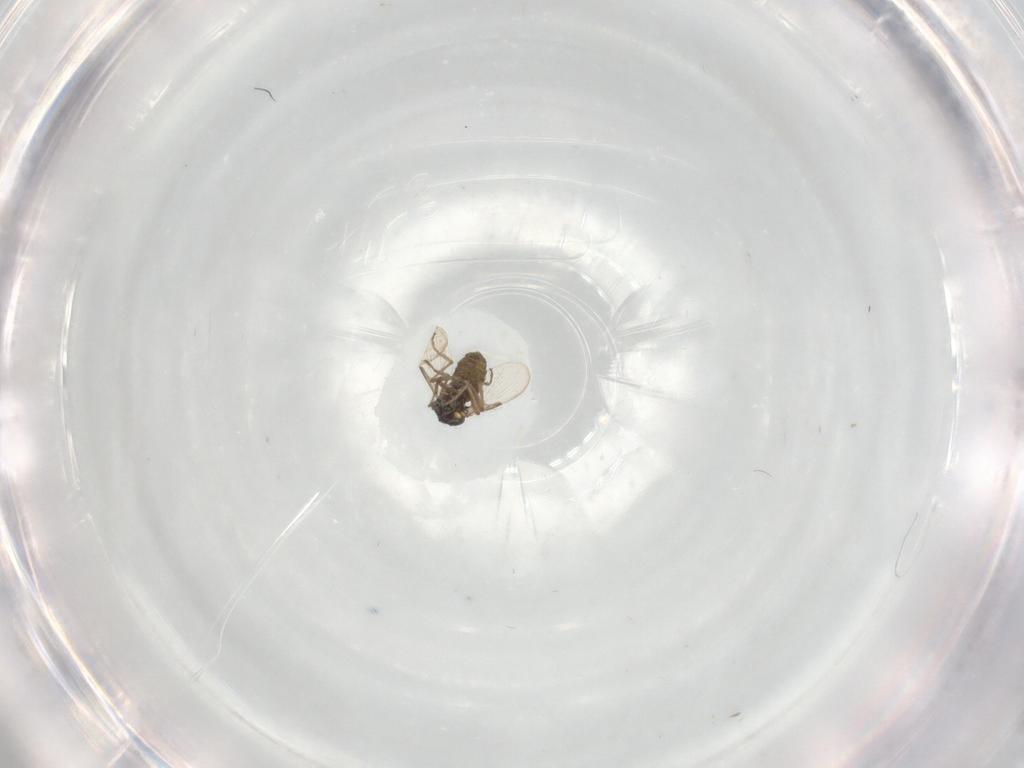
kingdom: Animalia
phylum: Arthropoda
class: Insecta
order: Diptera
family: Ceratopogonidae
